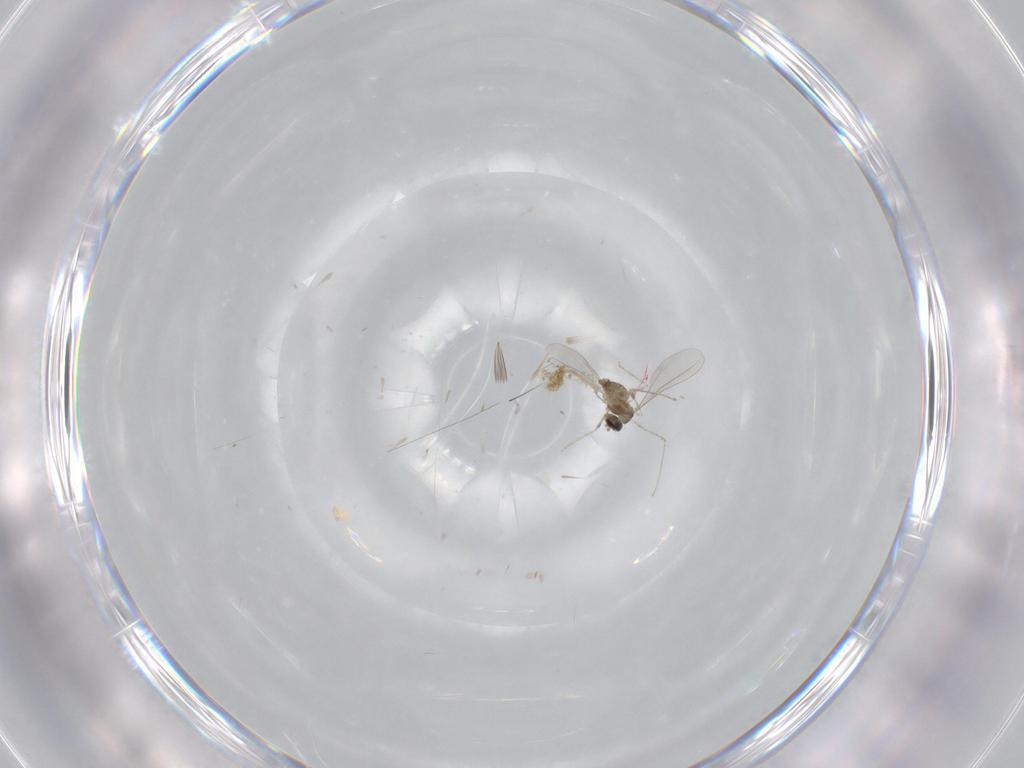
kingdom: Animalia
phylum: Arthropoda
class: Insecta
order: Diptera
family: Cecidomyiidae
